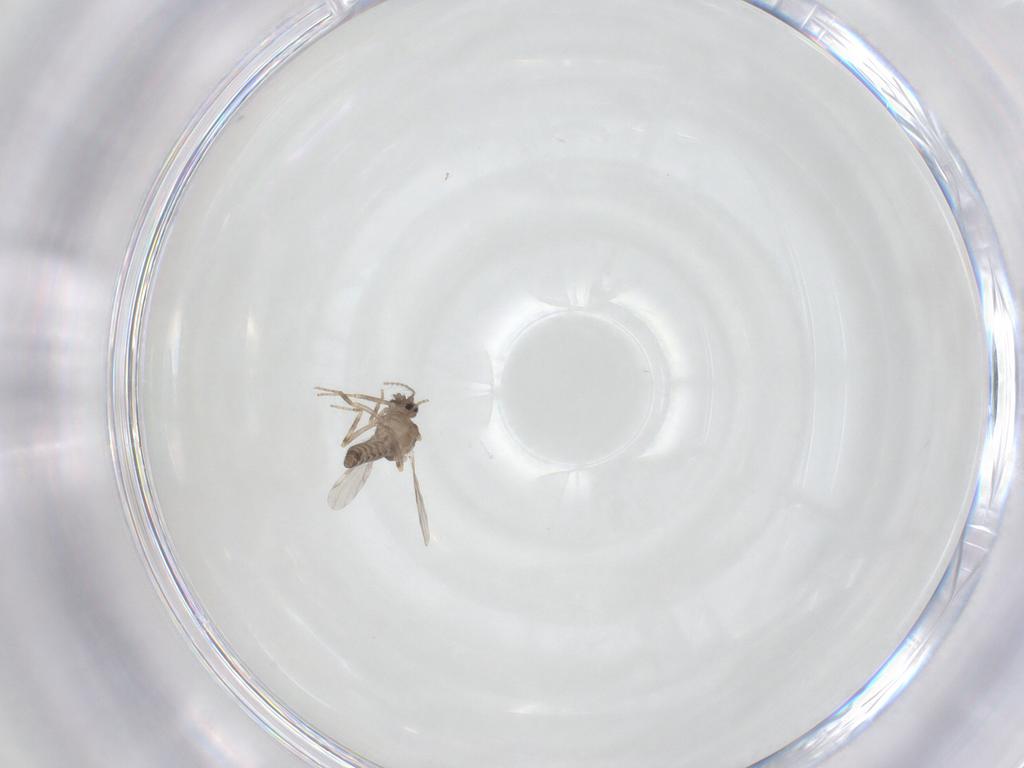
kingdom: Animalia
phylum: Arthropoda
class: Insecta
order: Diptera
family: Ceratopogonidae
